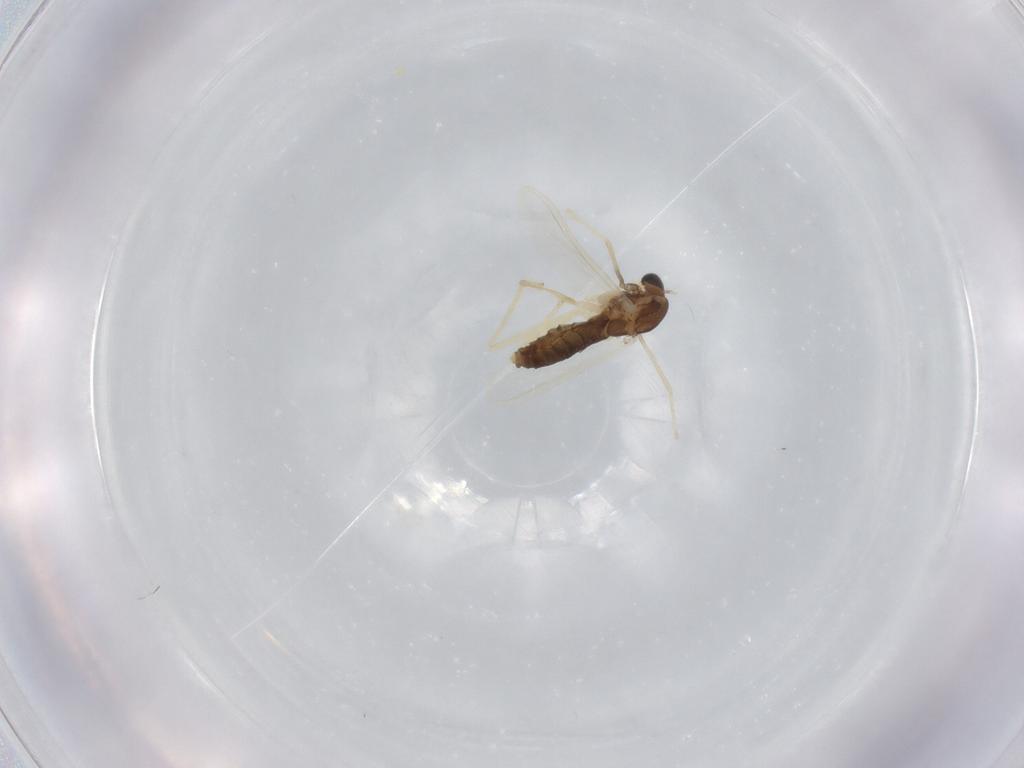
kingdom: Animalia
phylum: Arthropoda
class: Insecta
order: Diptera
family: Chironomidae
